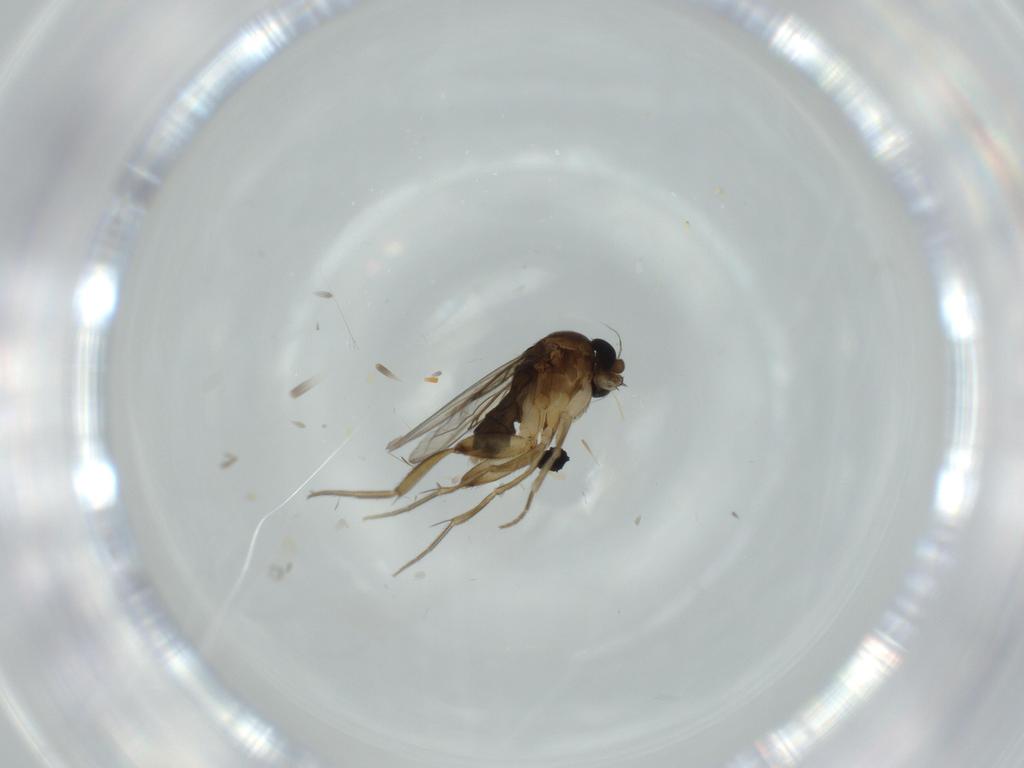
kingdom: Animalia
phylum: Arthropoda
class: Insecta
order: Diptera
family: Phoridae
